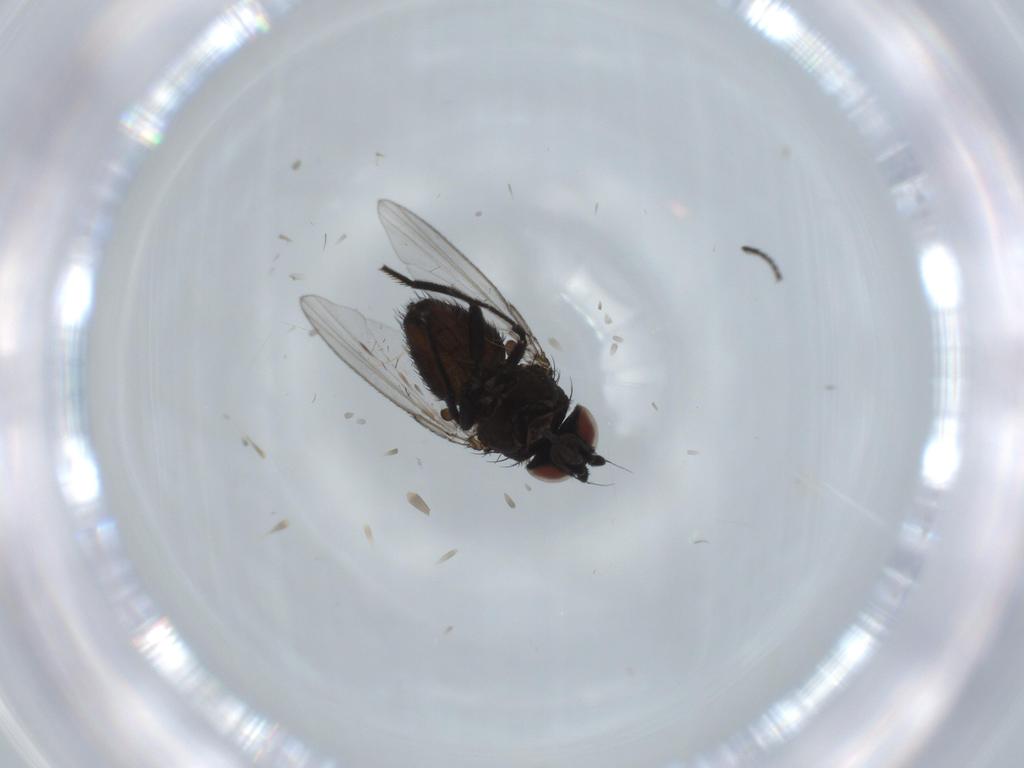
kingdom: Animalia
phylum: Arthropoda
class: Insecta
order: Diptera
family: Milichiidae
